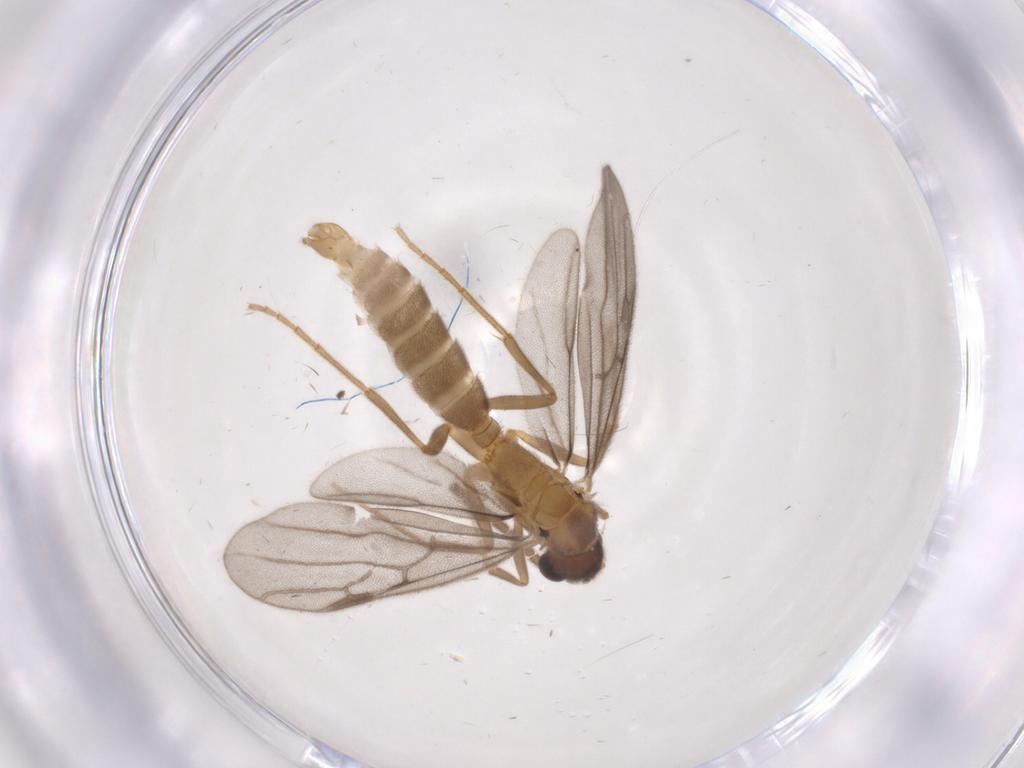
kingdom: Animalia
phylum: Arthropoda
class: Insecta
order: Hymenoptera
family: Formicidae
